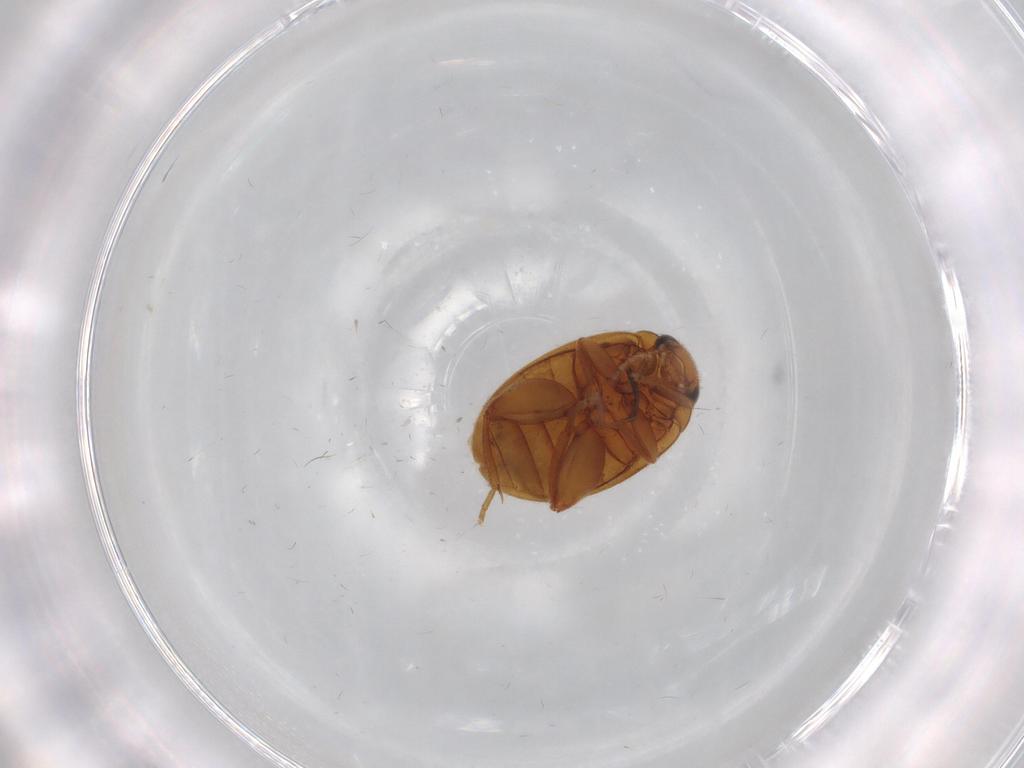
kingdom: Animalia
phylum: Arthropoda
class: Insecta
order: Coleoptera
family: Scirtidae
